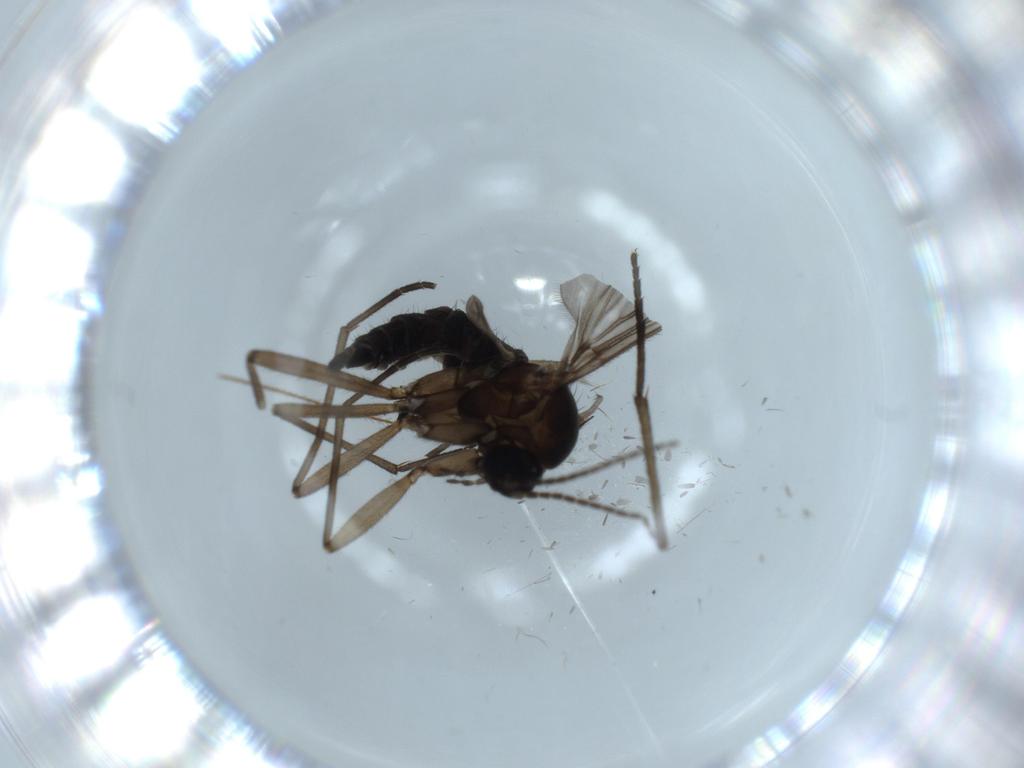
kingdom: Animalia
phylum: Arthropoda
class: Insecta
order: Diptera
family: Sciaridae
